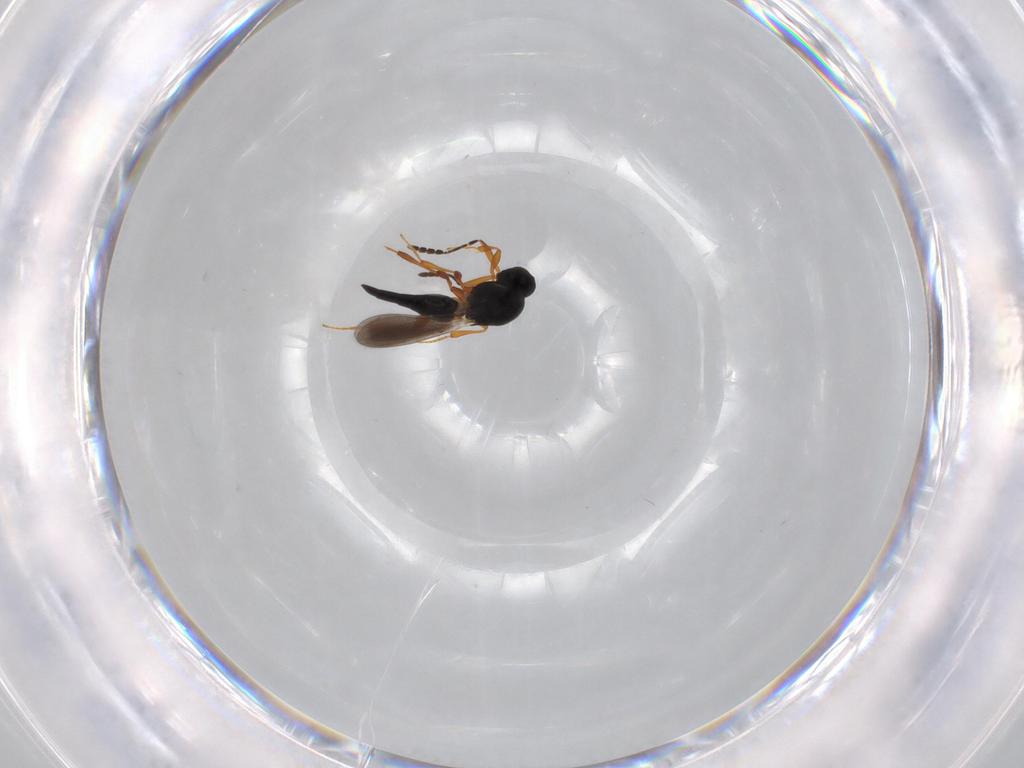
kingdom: Animalia
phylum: Arthropoda
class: Insecta
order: Hymenoptera
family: Platygastridae
